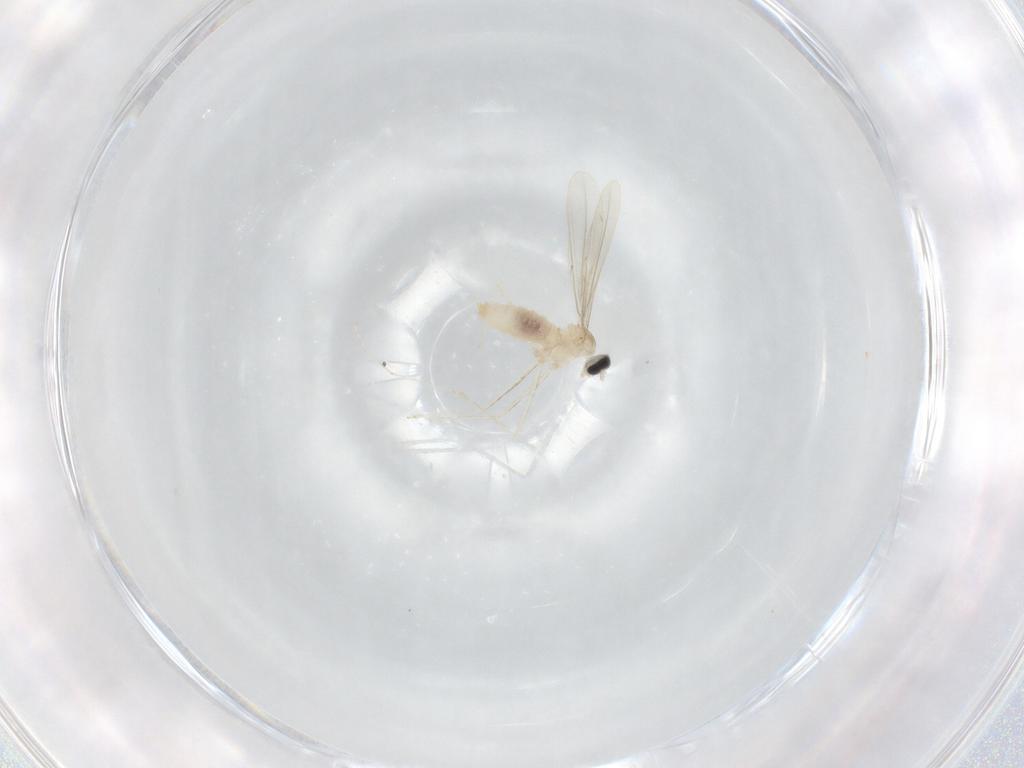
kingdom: Animalia
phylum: Arthropoda
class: Insecta
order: Diptera
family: Cecidomyiidae
